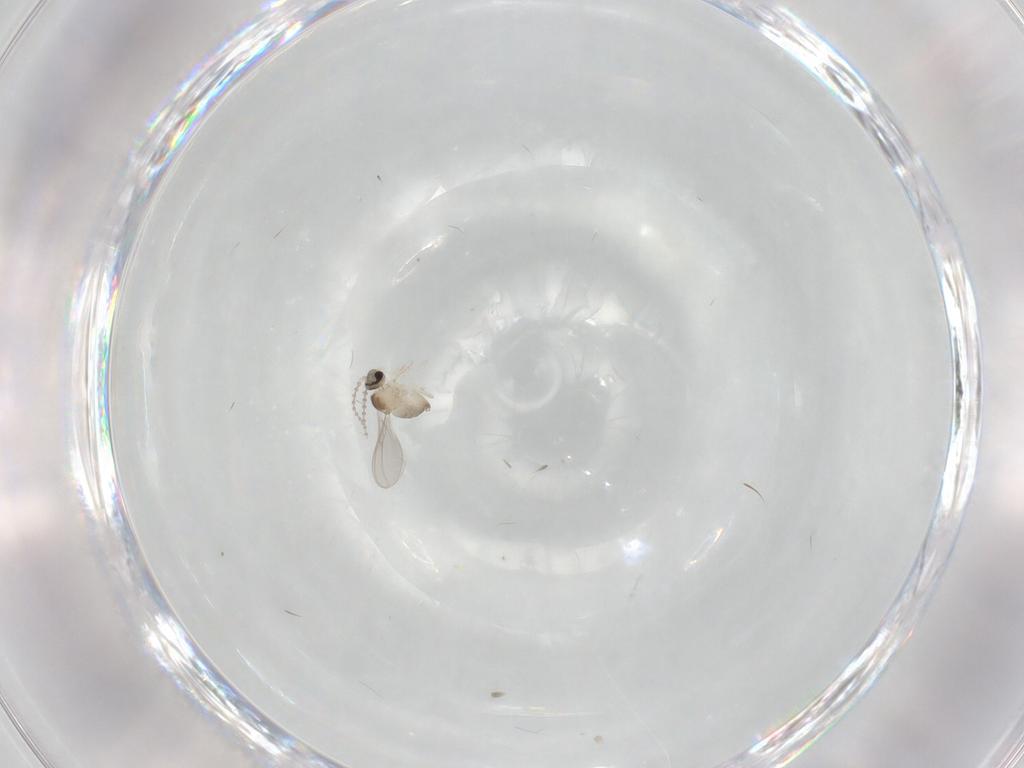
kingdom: Animalia
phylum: Arthropoda
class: Insecta
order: Diptera
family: Cecidomyiidae
